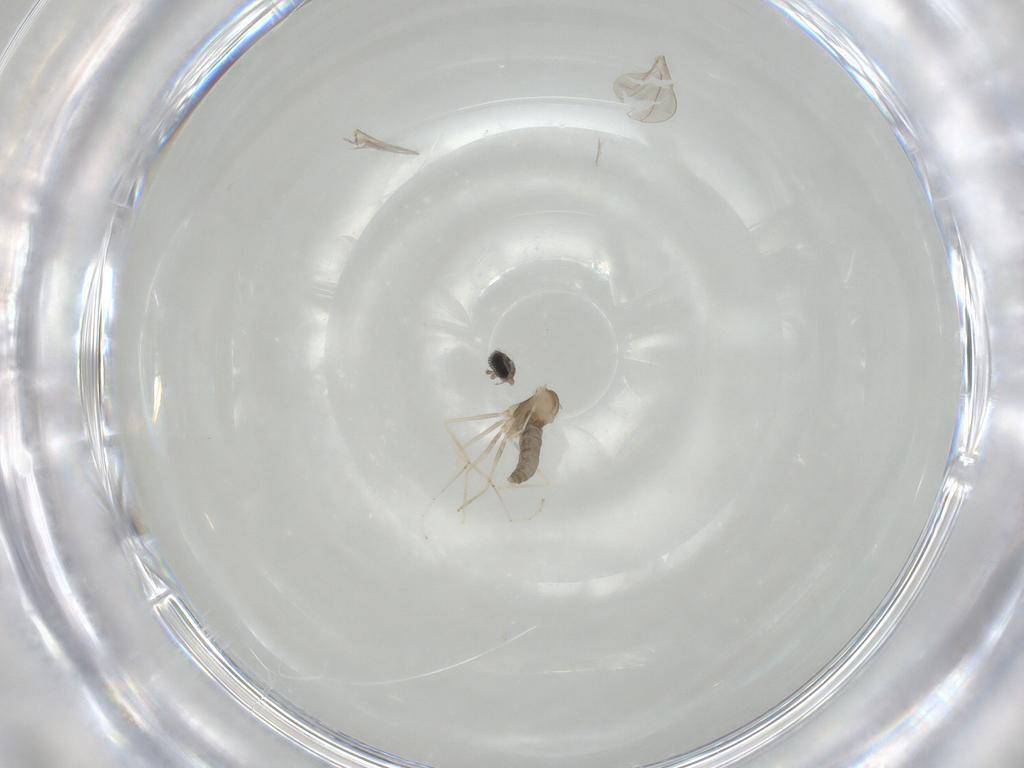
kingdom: Animalia
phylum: Arthropoda
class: Insecta
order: Diptera
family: Cecidomyiidae
